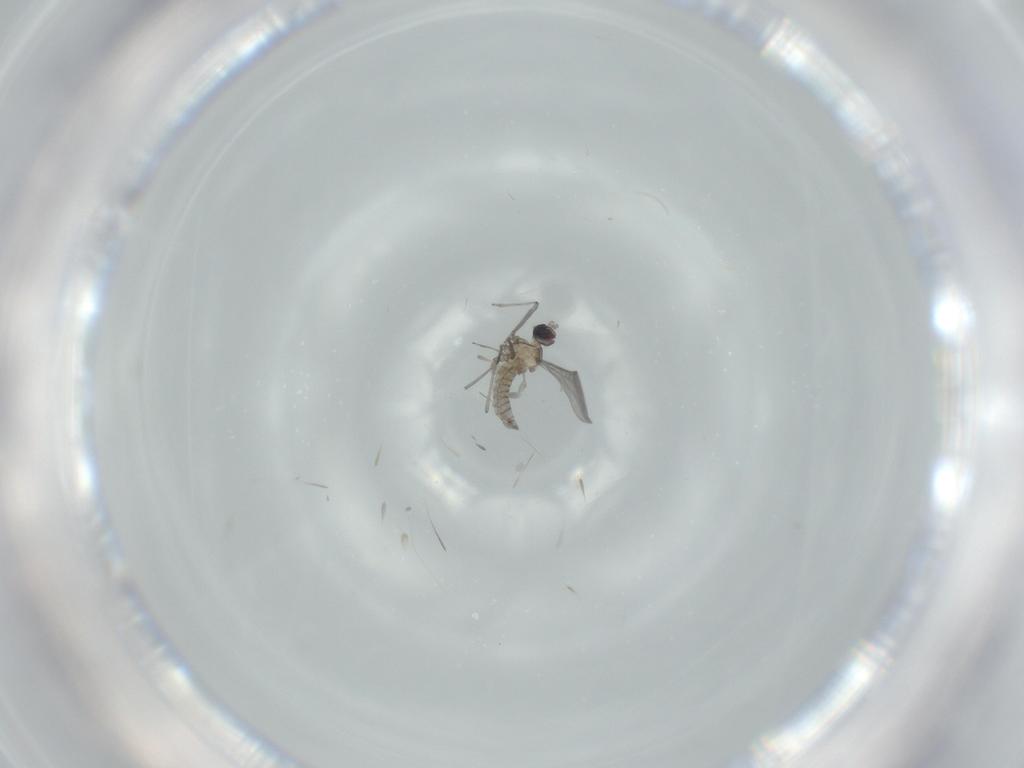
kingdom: Animalia
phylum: Arthropoda
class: Insecta
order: Diptera
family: Cecidomyiidae
